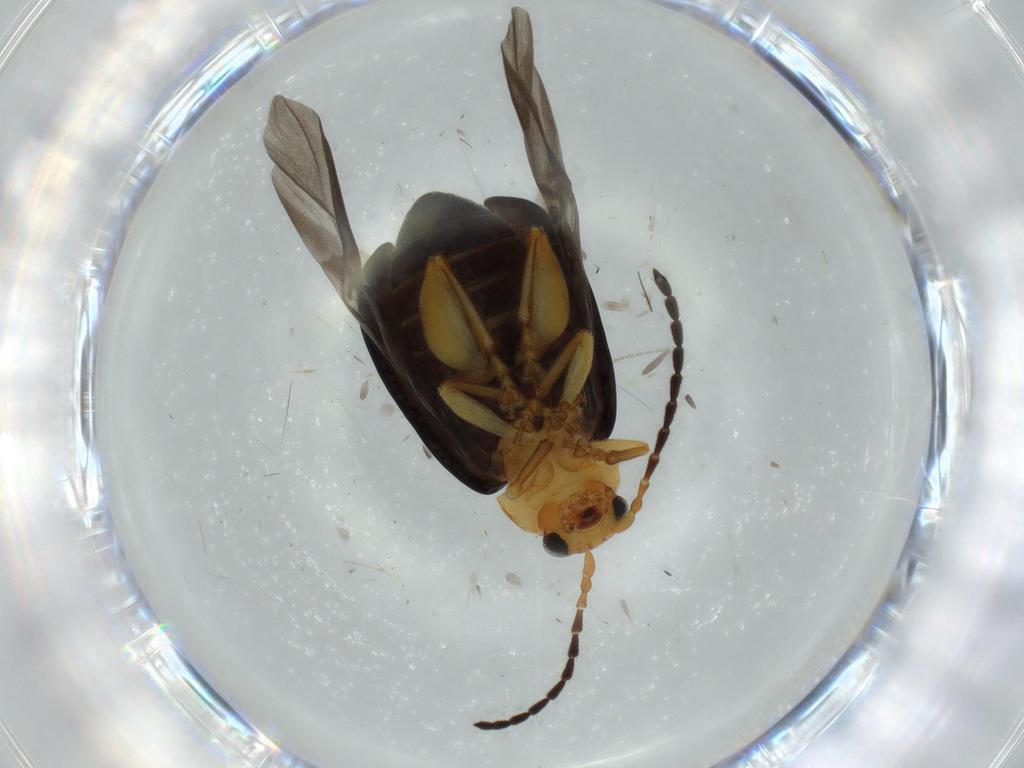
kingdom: Animalia
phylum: Arthropoda
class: Insecta
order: Coleoptera
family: Chrysomelidae
